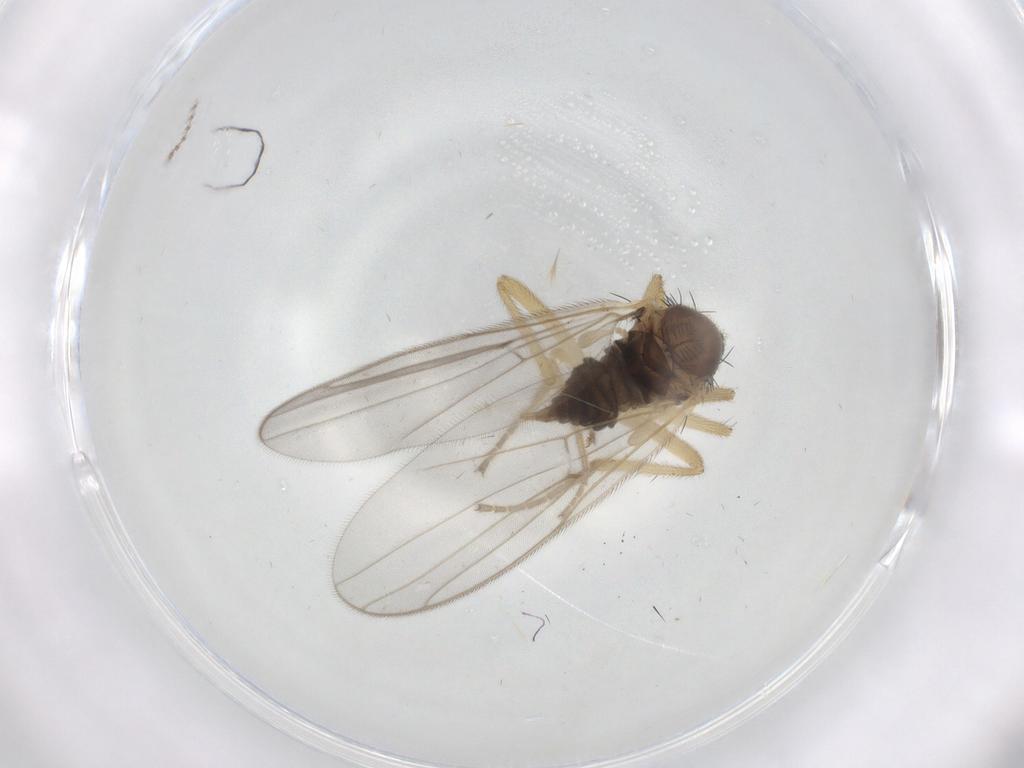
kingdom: Animalia
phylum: Arthropoda
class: Insecta
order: Diptera
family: Hybotidae
